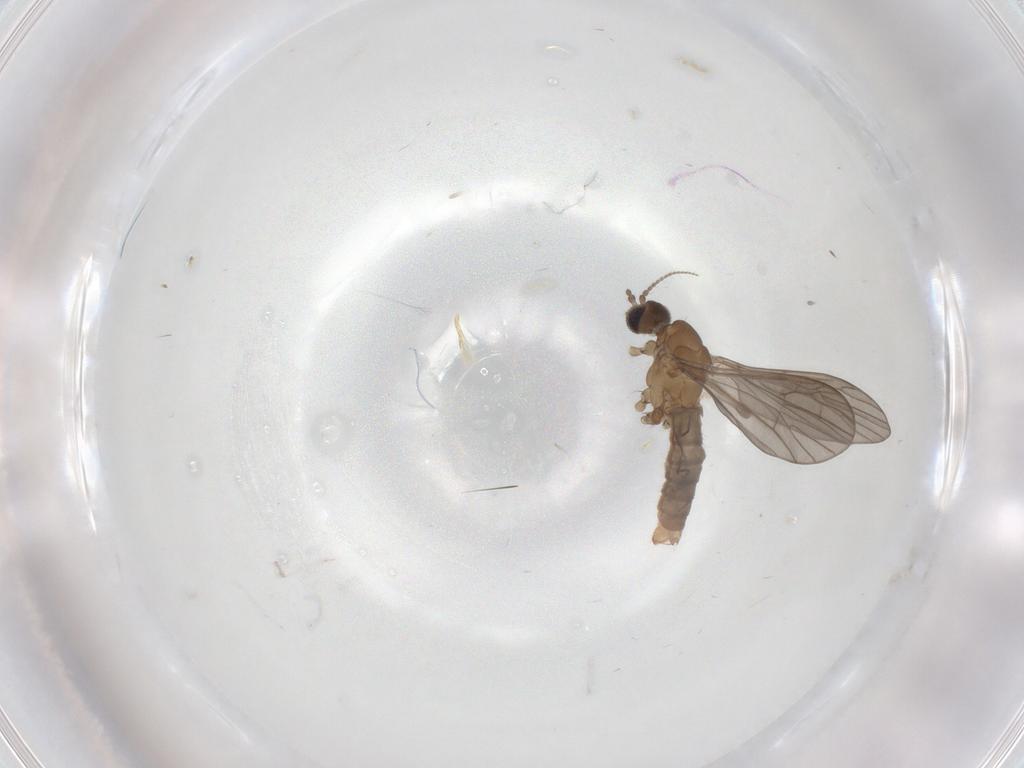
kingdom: Animalia
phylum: Arthropoda
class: Insecta
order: Diptera
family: Limoniidae
